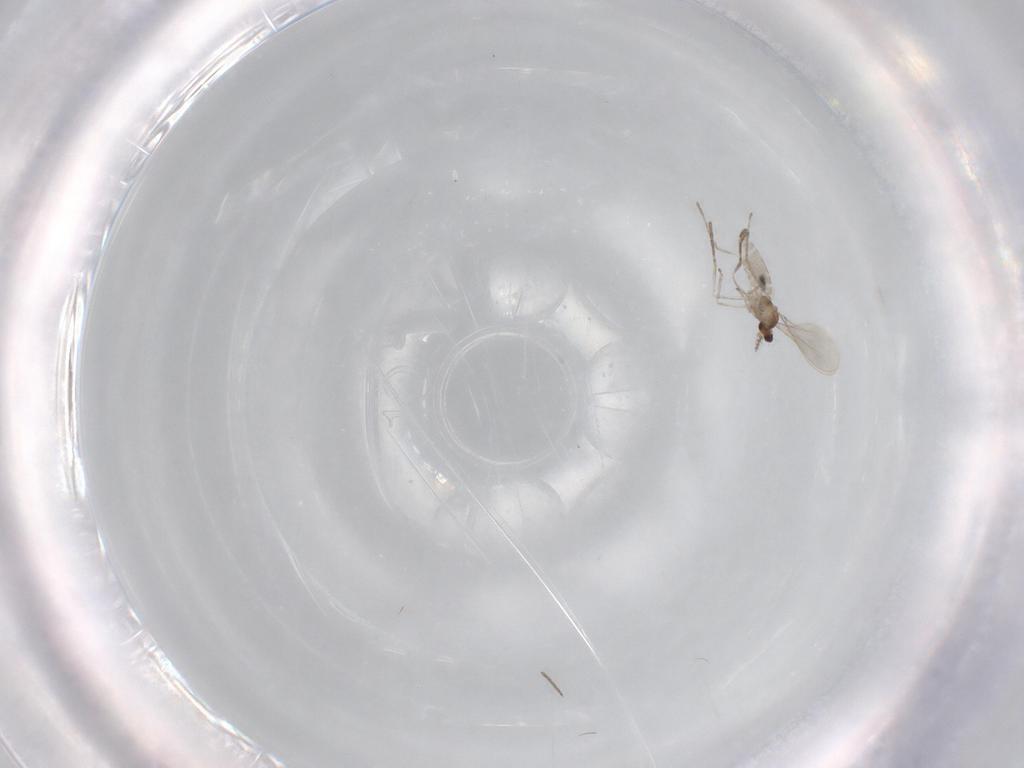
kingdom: Animalia
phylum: Arthropoda
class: Insecta
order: Diptera
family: Cecidomyiidae
